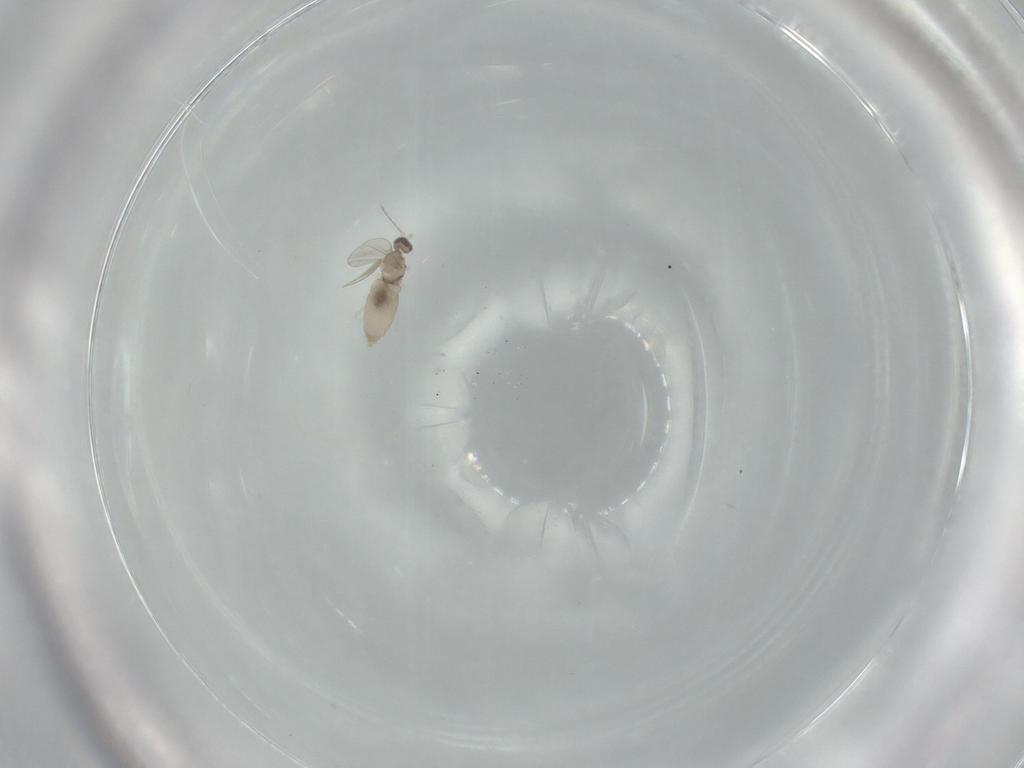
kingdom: Animalia
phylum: Arthropoda
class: Insecta
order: Diptera
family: Cecidomyiidae
